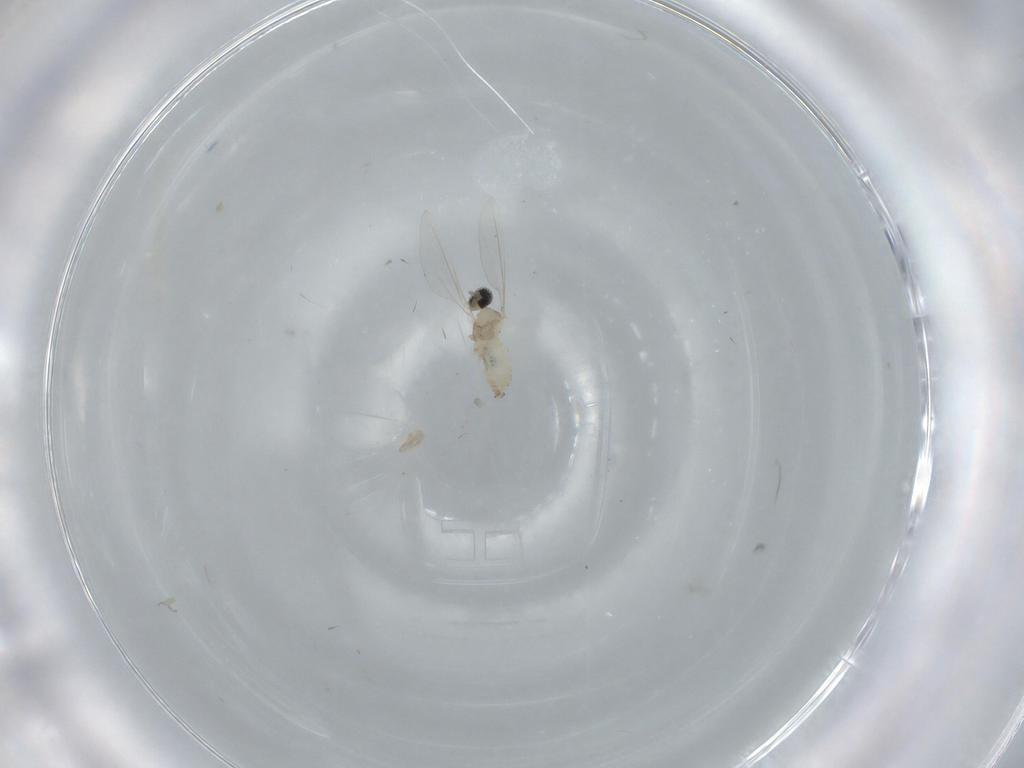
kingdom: Animalia
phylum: Arthropoda
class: Insecta
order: Diptera
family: Cecidomyiidae
